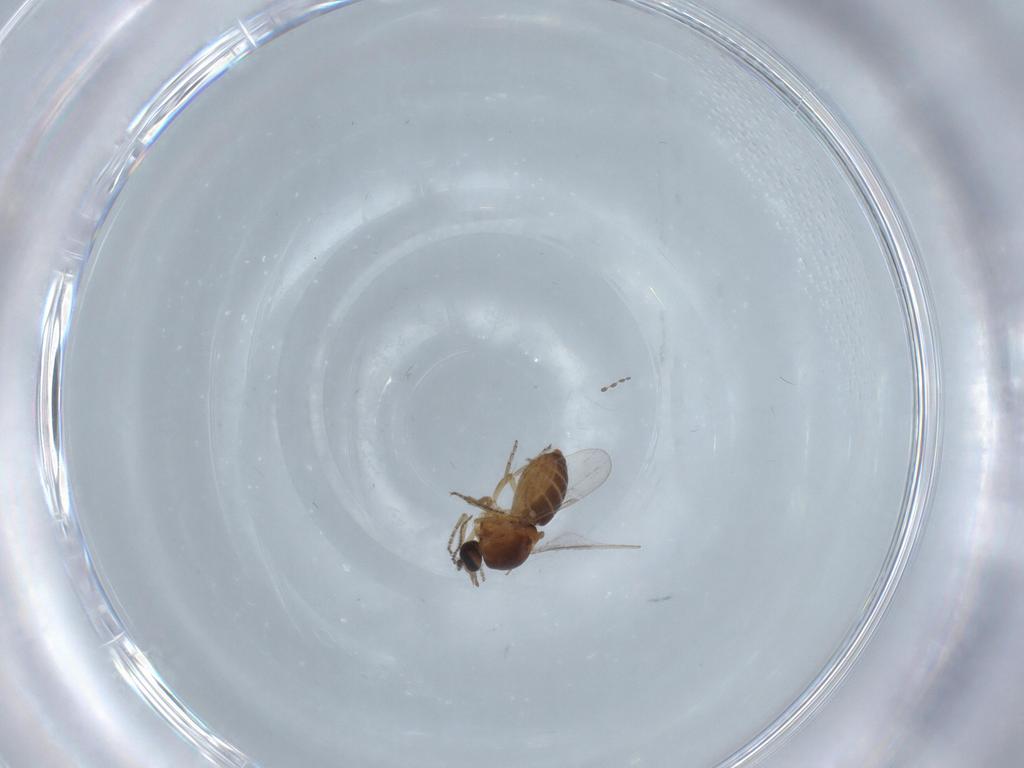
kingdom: Animalia
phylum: Arthropoda
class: Insecta
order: Diptera
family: Ceratopogonidae
